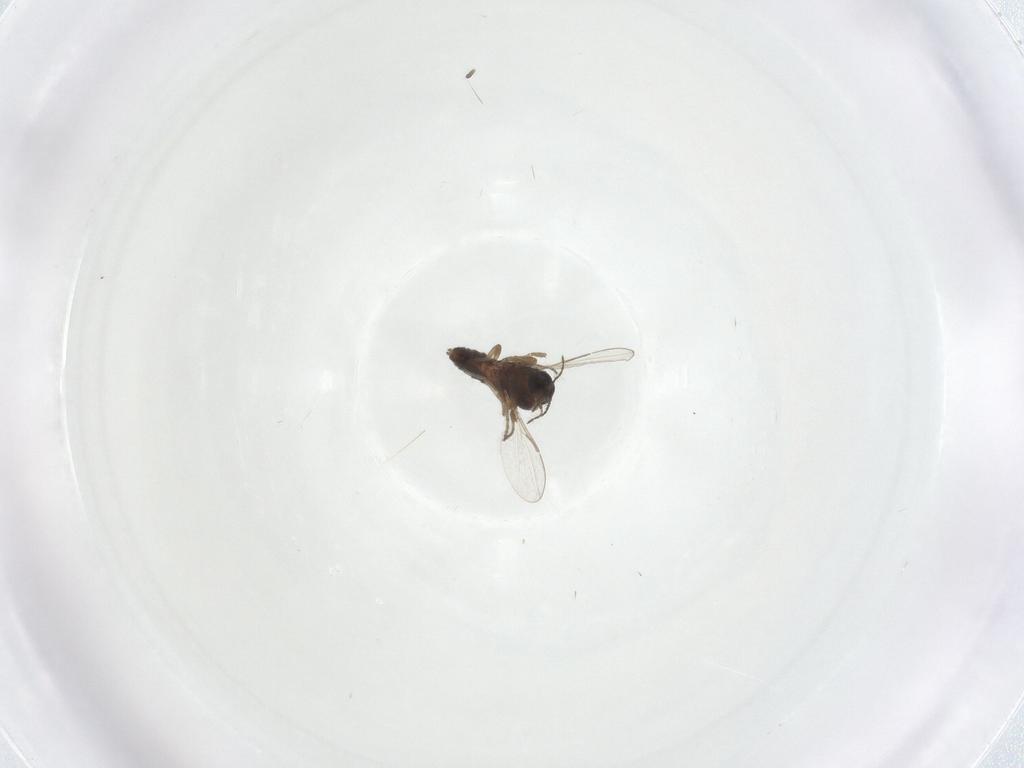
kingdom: Animalia
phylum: Arthropoda
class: Insecta
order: Diptera
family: Ceratopogonidae
